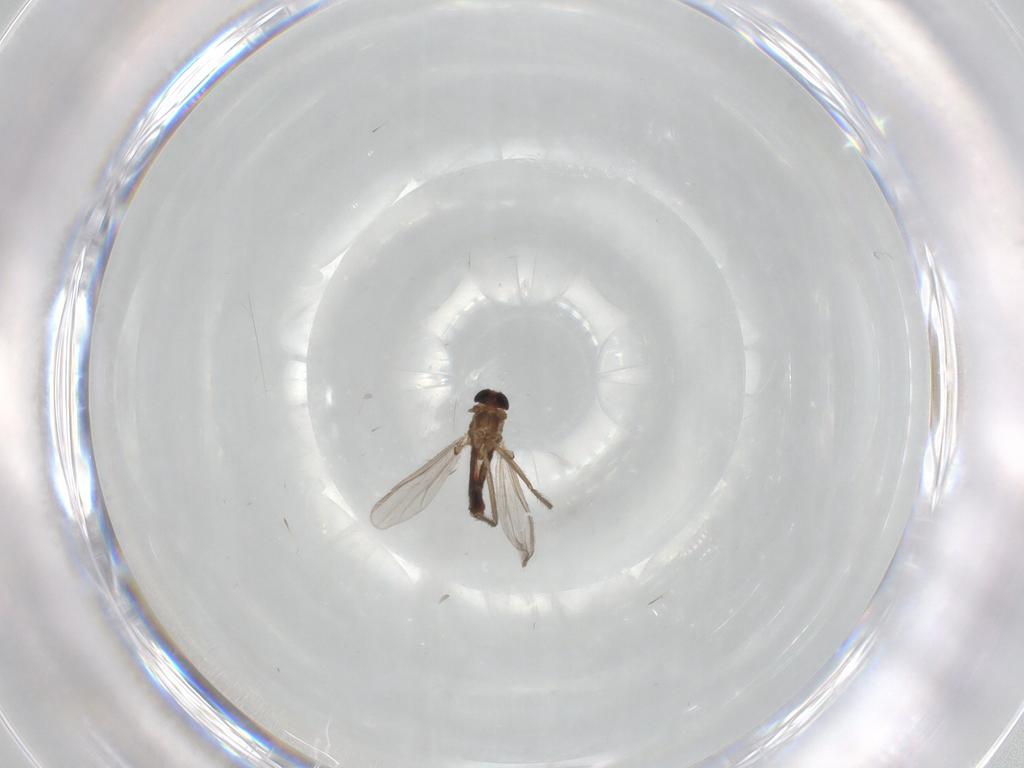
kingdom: Animalia
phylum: Arthropoda
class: Insecta
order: Diptera
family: Chironomidae
